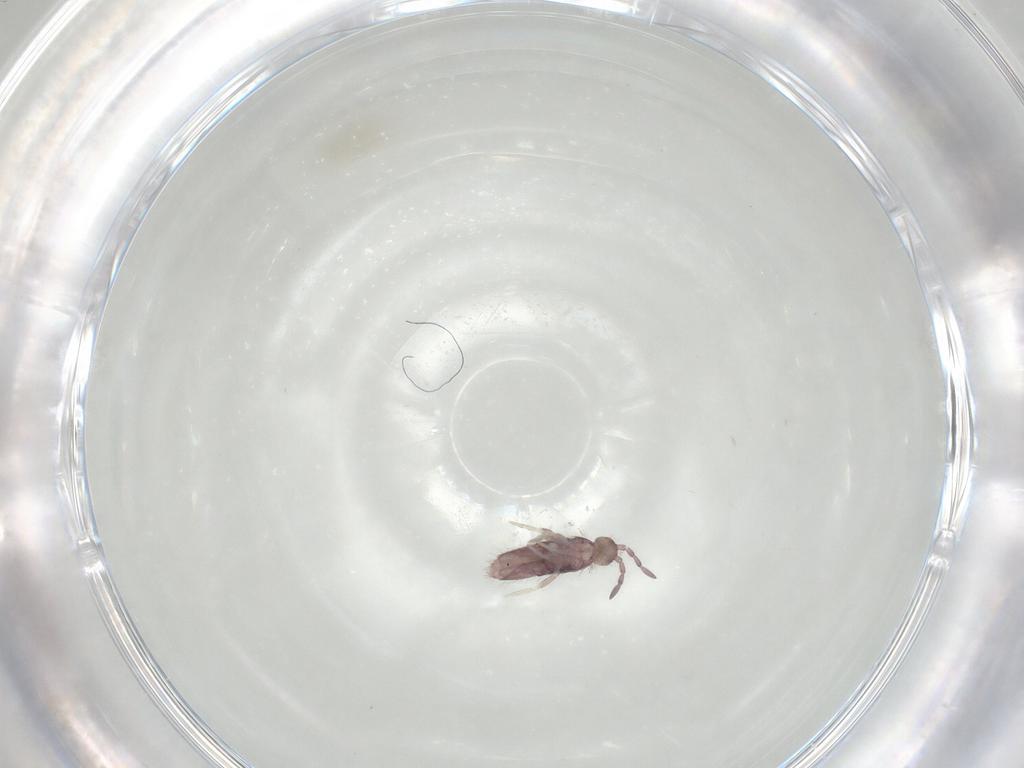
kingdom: Animalia
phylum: Arthropoda
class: Collembola
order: Entomobryomorpha
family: Entomobryidae
